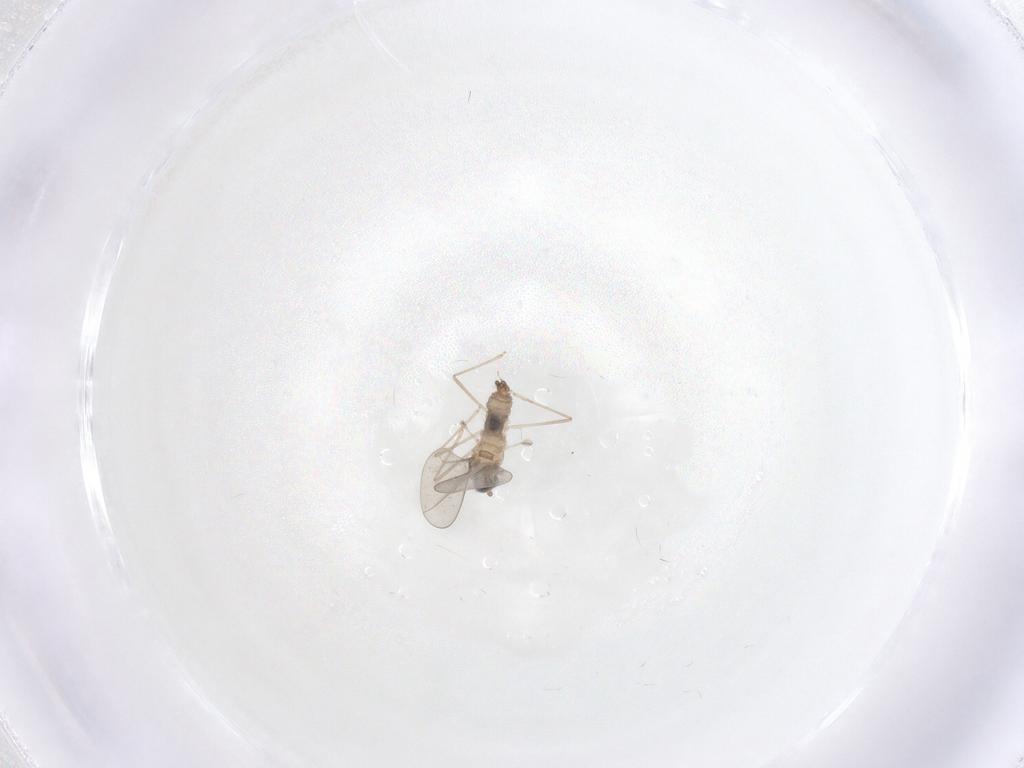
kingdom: Animalia
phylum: Arthropoda
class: Insecta
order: Diptera
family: Cecidomyiidae
